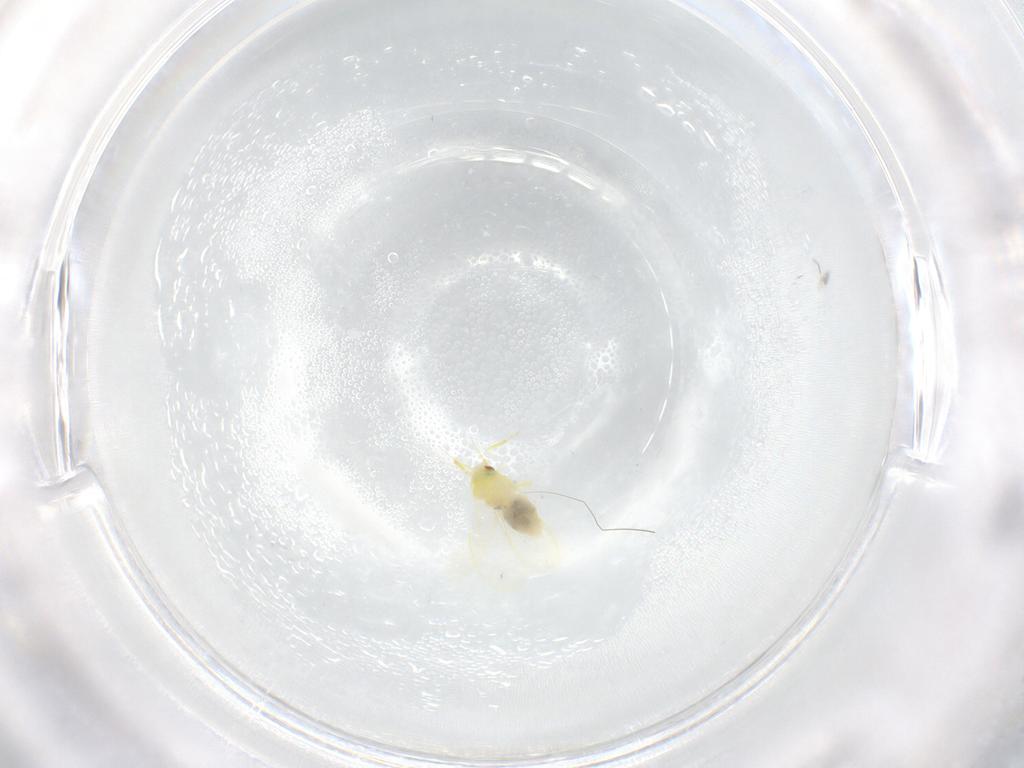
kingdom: Animalia
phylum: Arthropoda
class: Insecta
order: Hemiptera
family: Aleyrodidae
